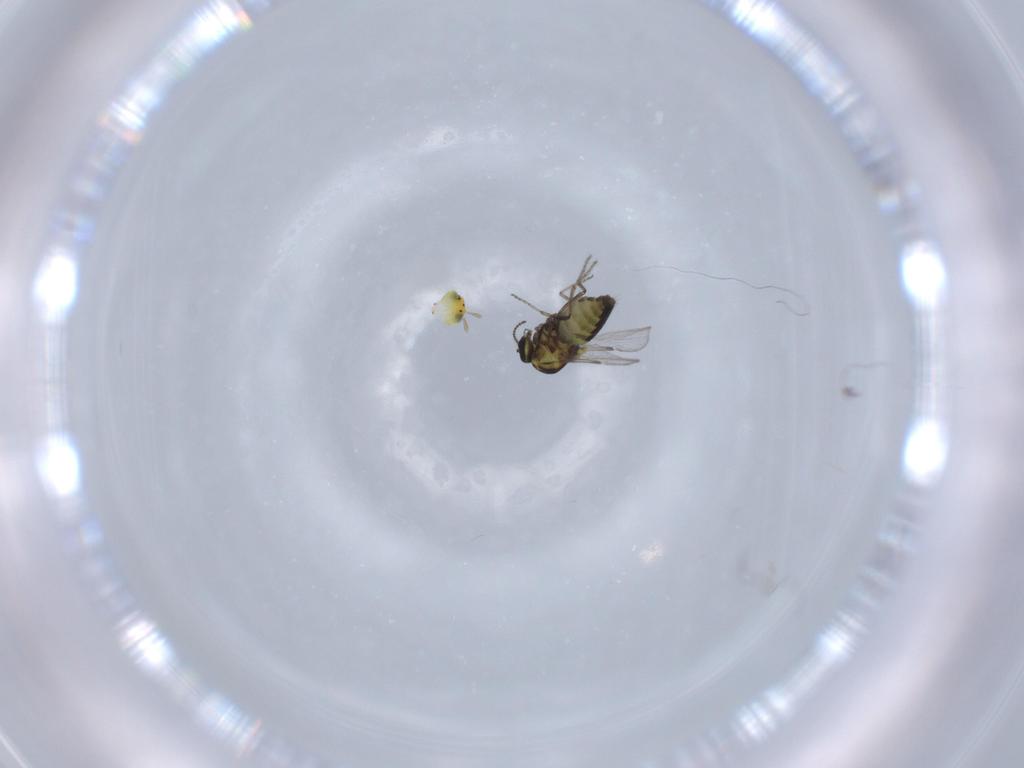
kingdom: Animalia
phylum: Arthropoda
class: Insecta
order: Diptera
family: Ceratopogonidae
